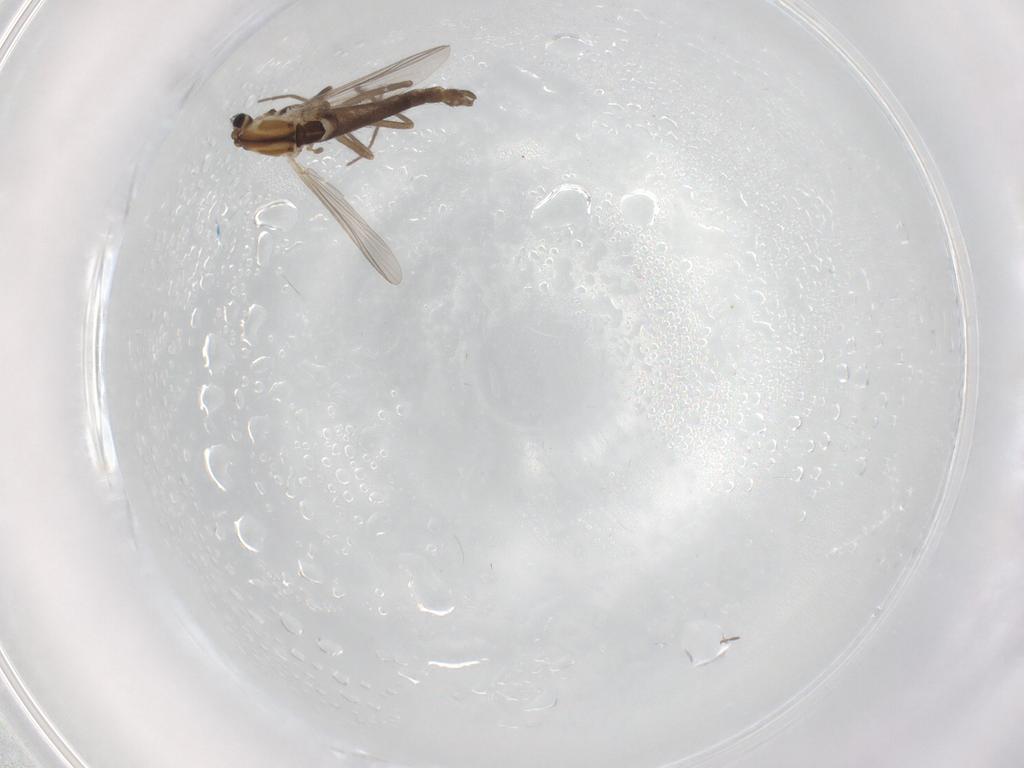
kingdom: Animalia
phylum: Arthropoda
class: Insecta
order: Diptera
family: Chironomidae
